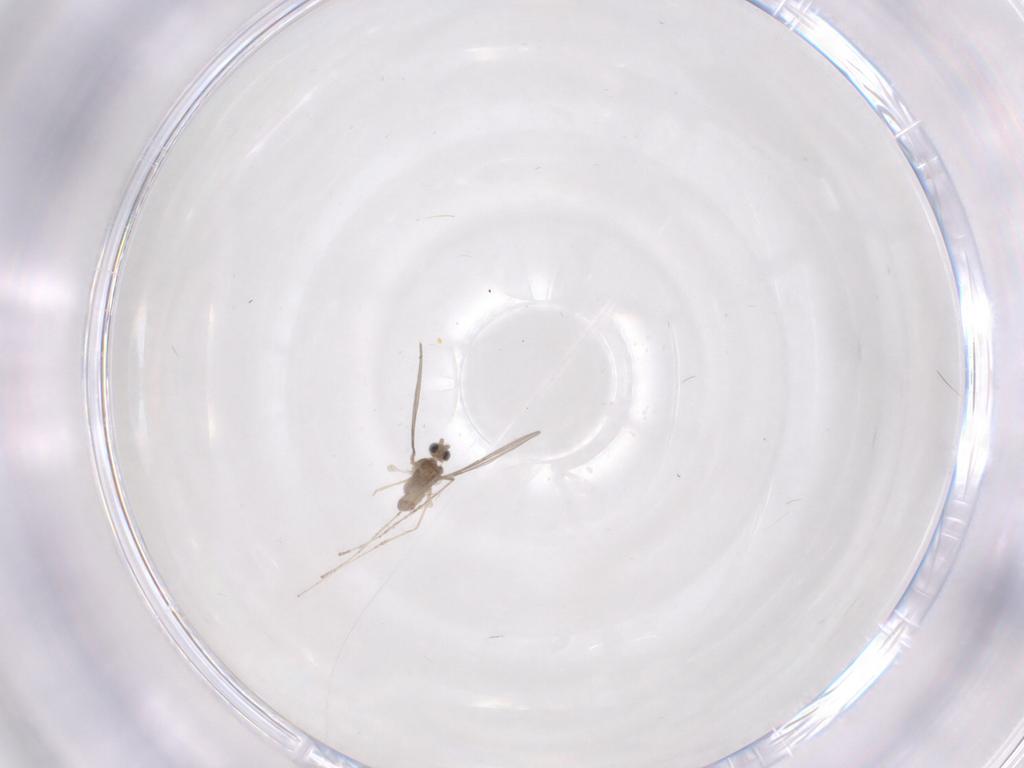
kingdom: Animalia
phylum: Arthropoda
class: Insecta
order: Diptera
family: Cecidomyiidae
